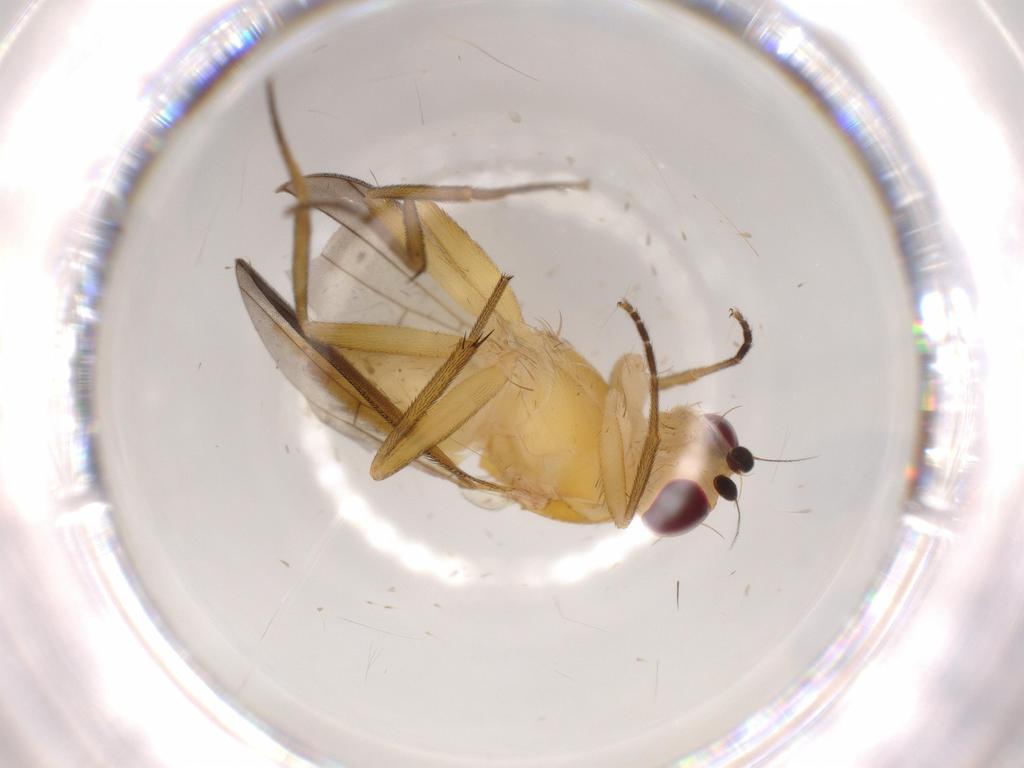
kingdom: Animalia
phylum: Arthropoda
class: Insecta
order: Diptera
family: Clusiidae
